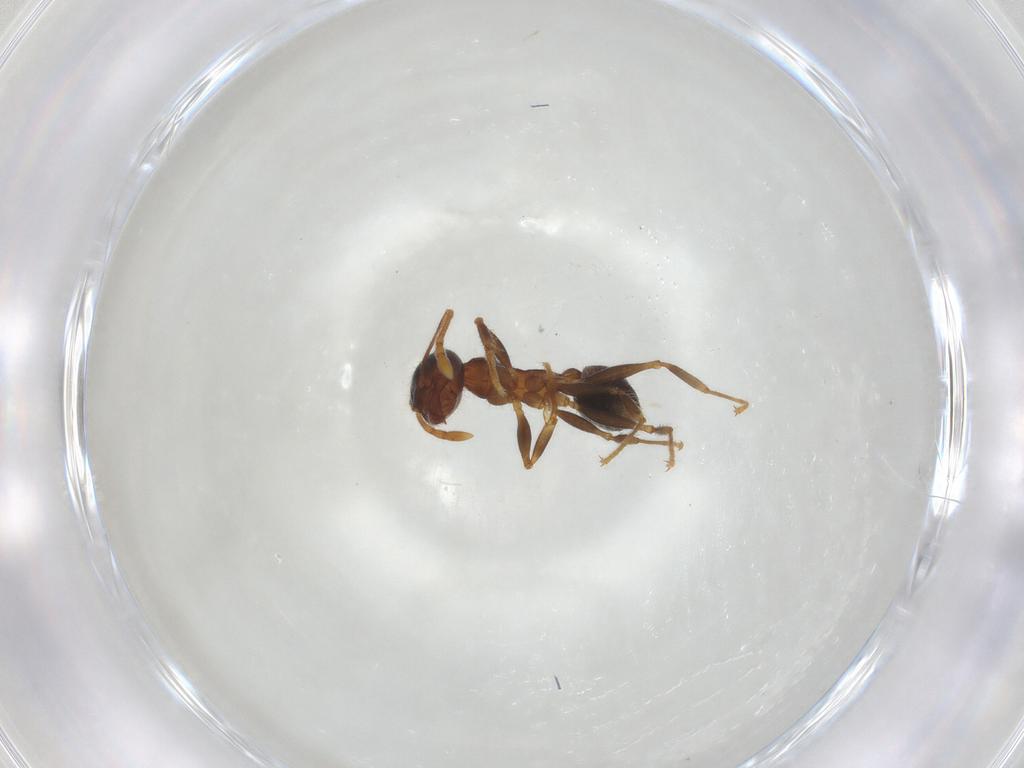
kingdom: Animalia
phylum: Arthropoda
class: Insecta
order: Hymenoptera
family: Formicidae
